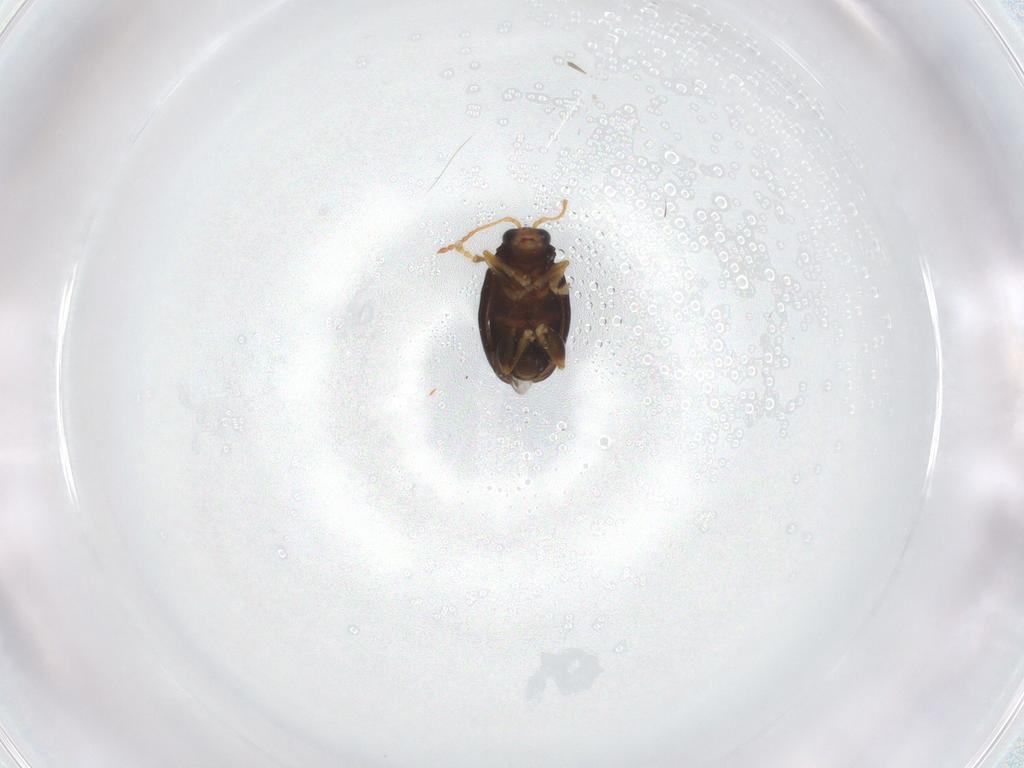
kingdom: Animalia
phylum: Arthropoda
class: Insecta
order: Coleoptera
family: Chrysomelidae
